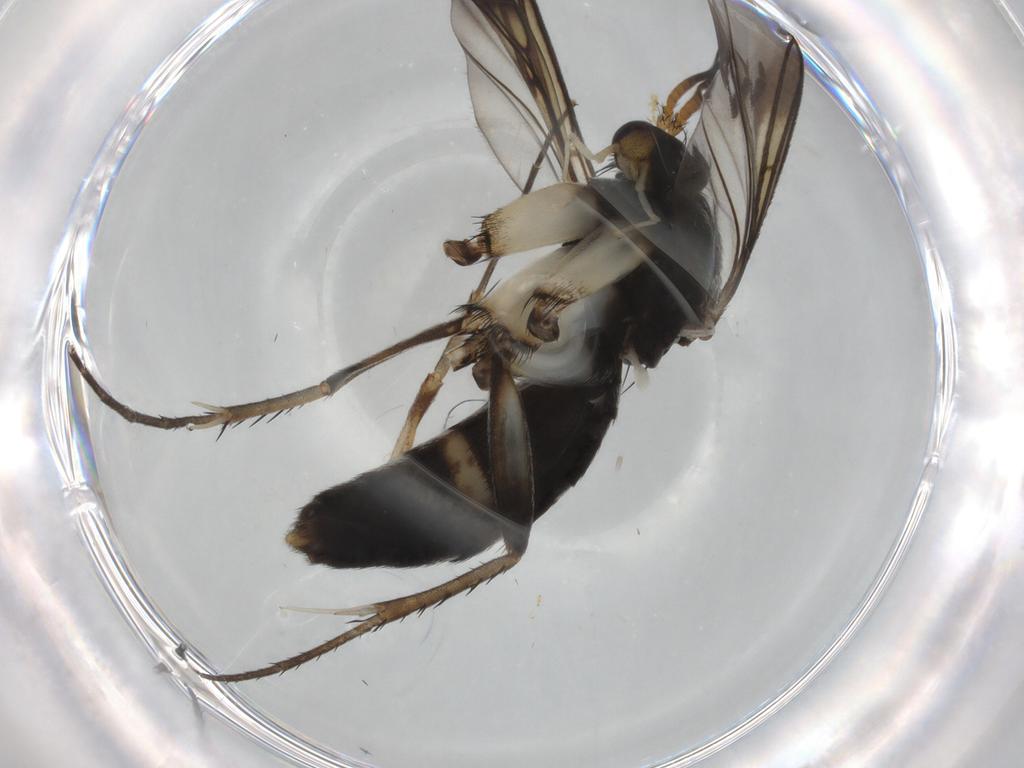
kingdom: Animalia
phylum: Arthropoda
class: Insecta
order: Diptera
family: Mycetophilidae
